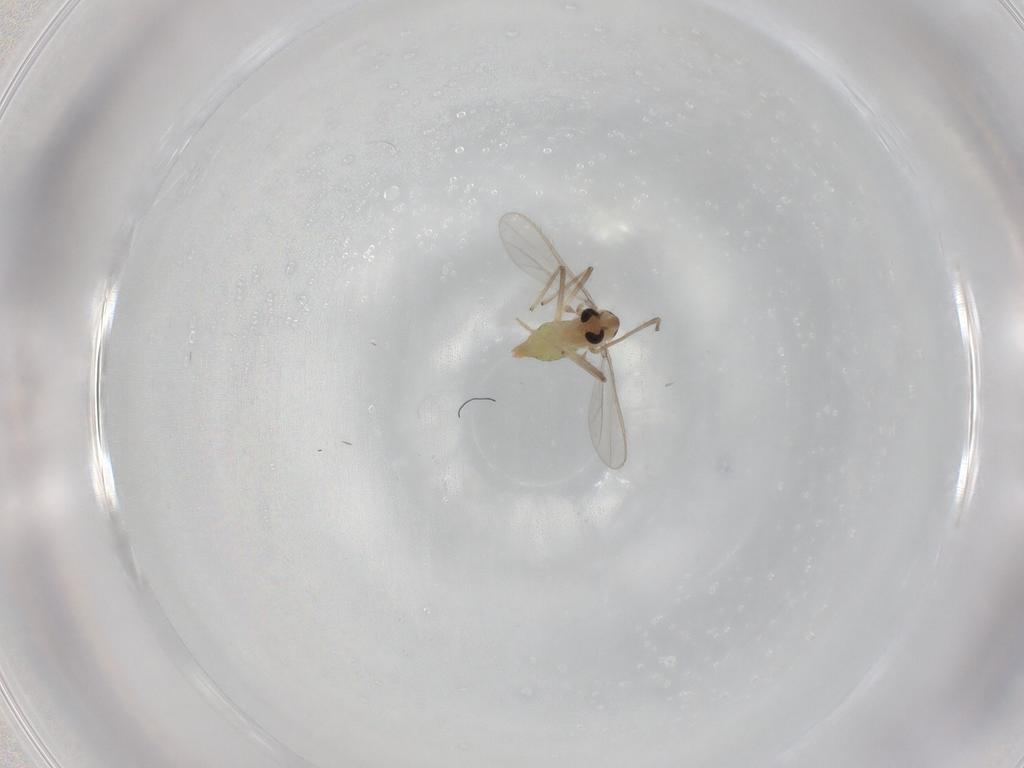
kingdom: Animalia
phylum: Arthropoda
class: Insecta
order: Diptera
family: Chironomidae
